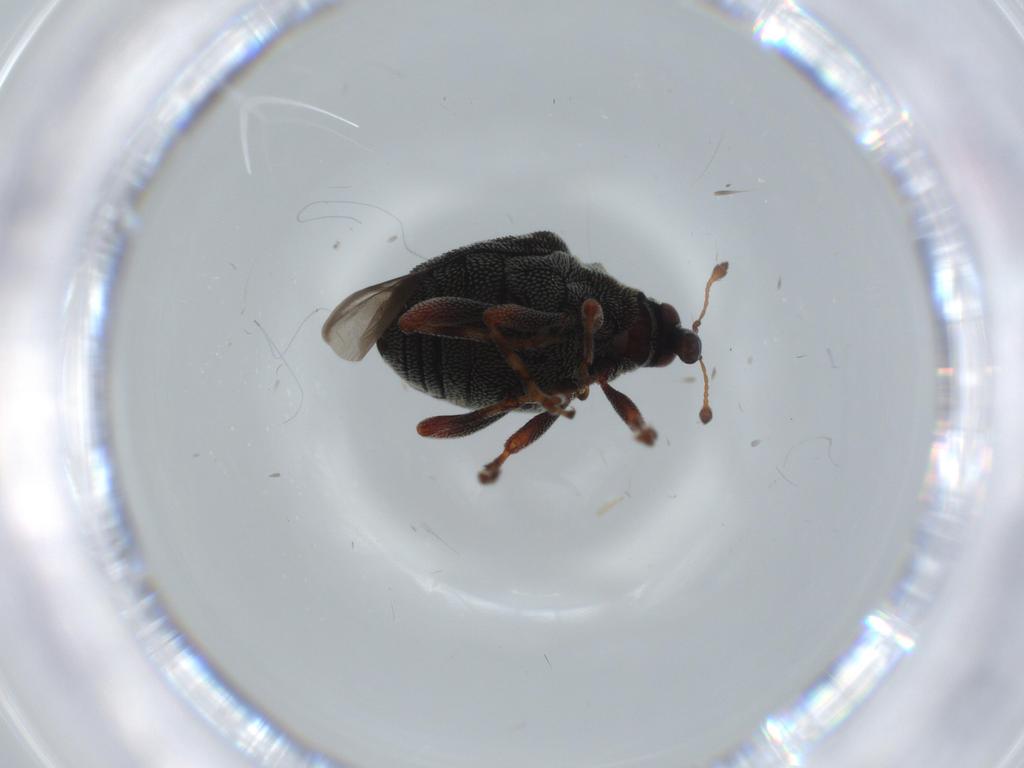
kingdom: Animalia
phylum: Arthropoda
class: Insecta
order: Coleoptera
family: Curculionidae
